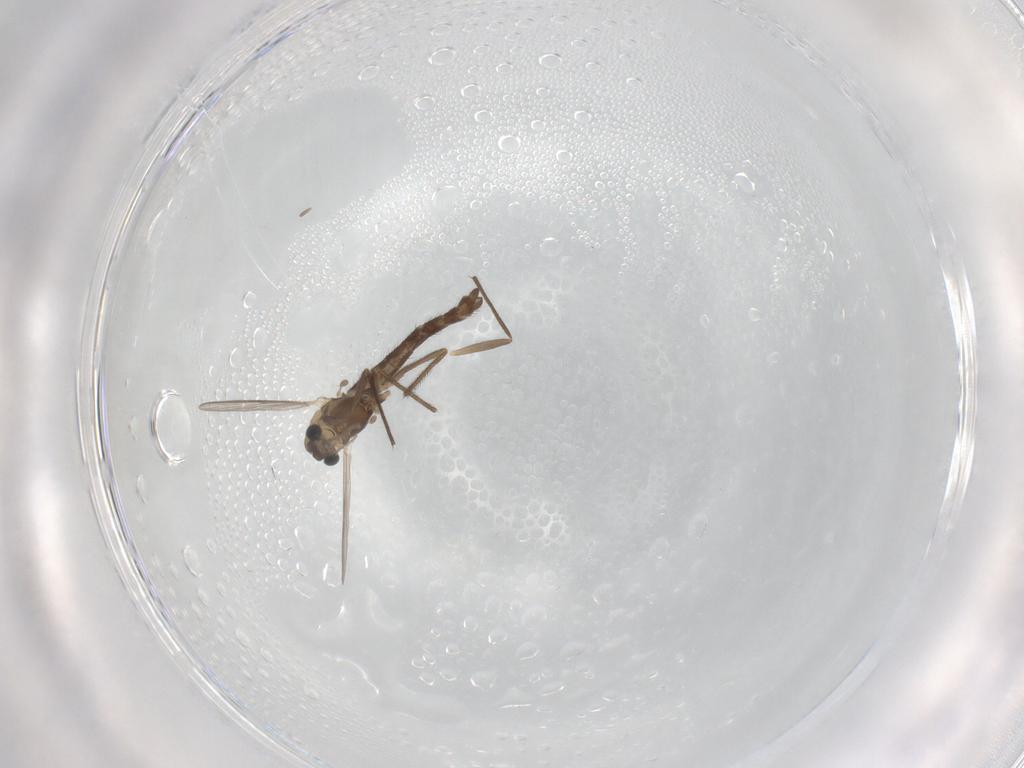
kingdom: Animalia
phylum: Arthropoda
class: Insecta
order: Diptera
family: Chironomidae
